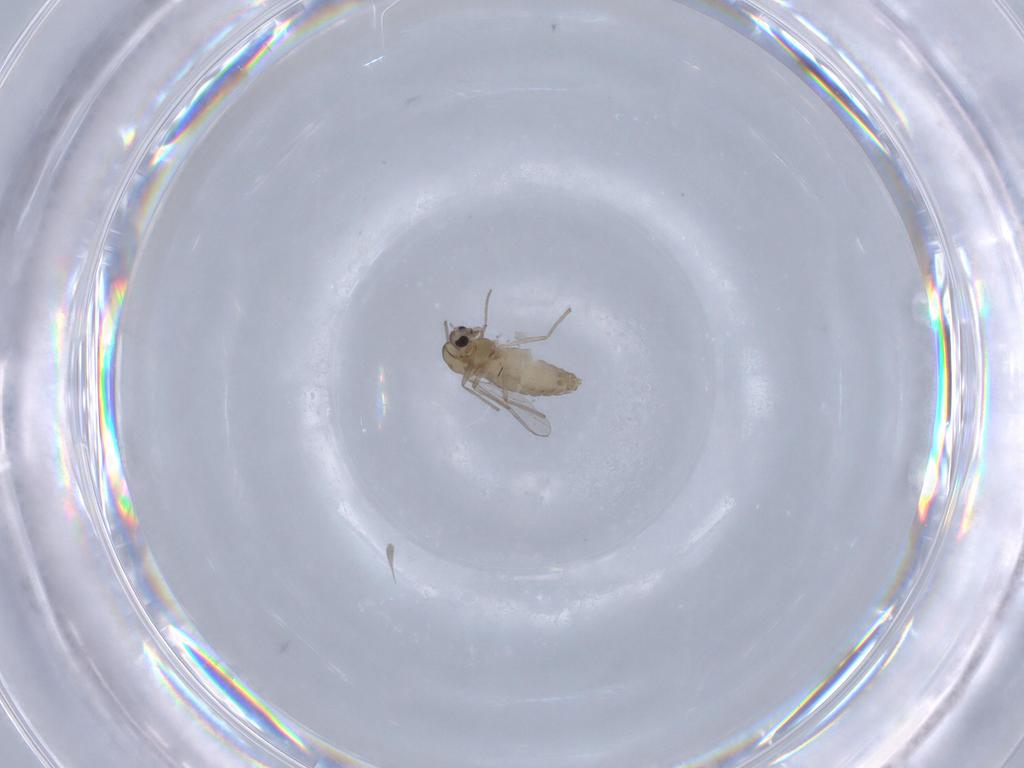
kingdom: Animalia
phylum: Arthropoda
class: Insecta
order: Diptera
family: Chironomidae
